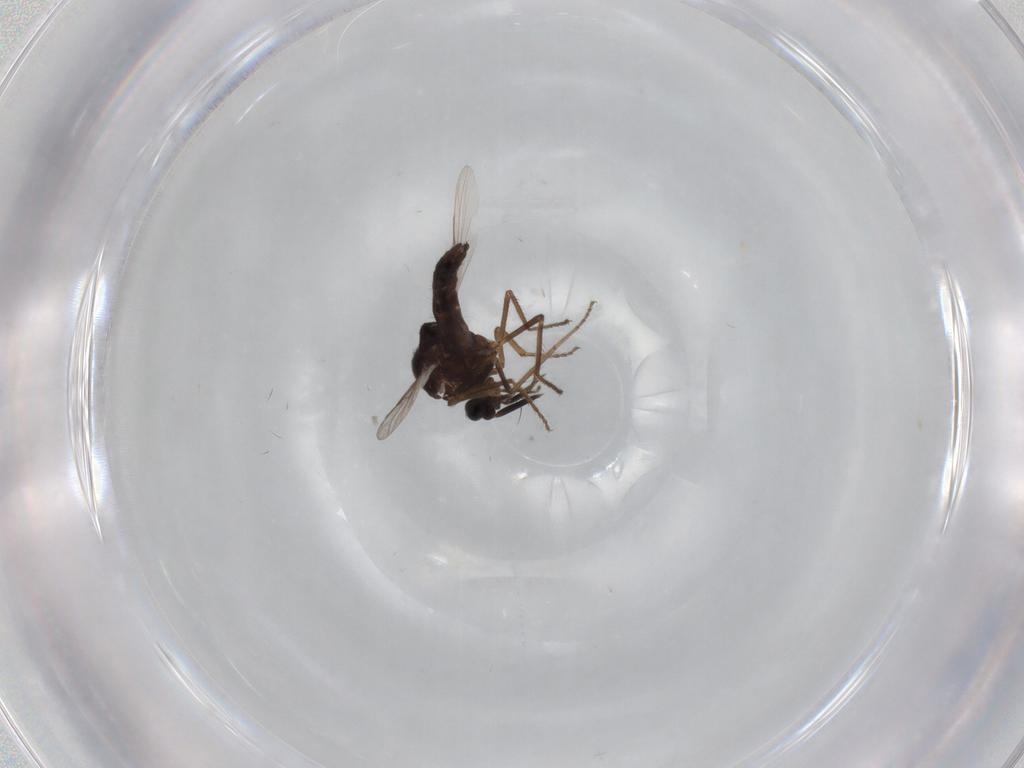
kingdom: Animalia
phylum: Arthropoda
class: Insecta
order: Diptera
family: Ceratopogonidae
